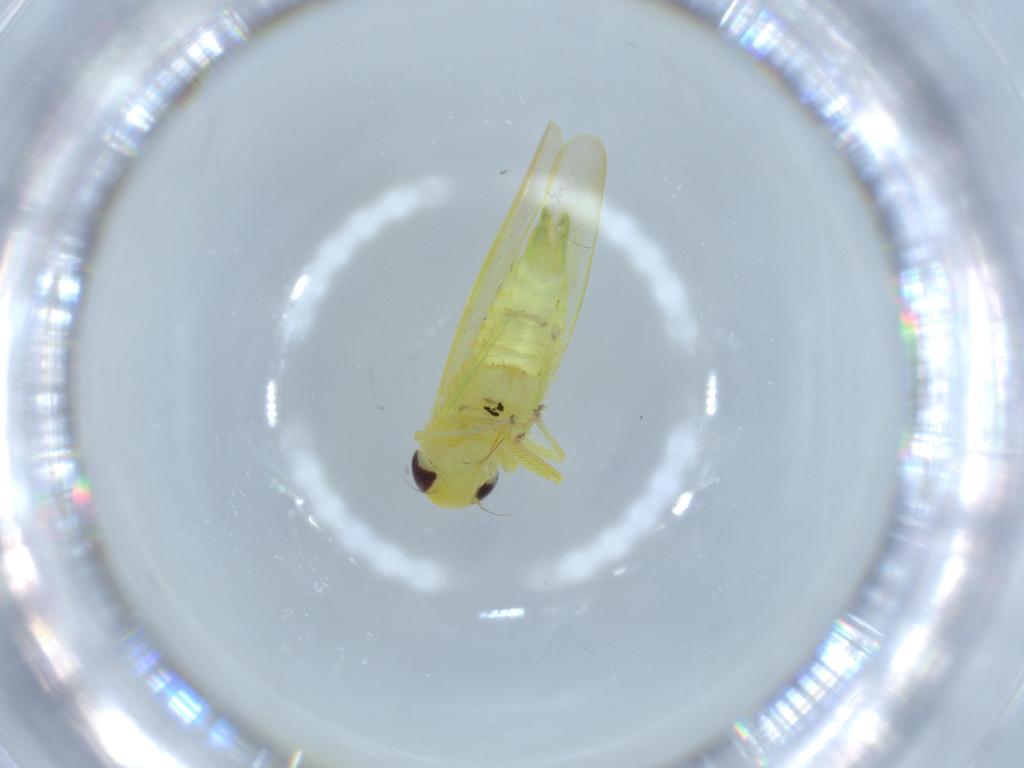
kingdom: Animalia
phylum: Arthropoda
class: Insecta
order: Hemiptera
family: Cicadellidae
